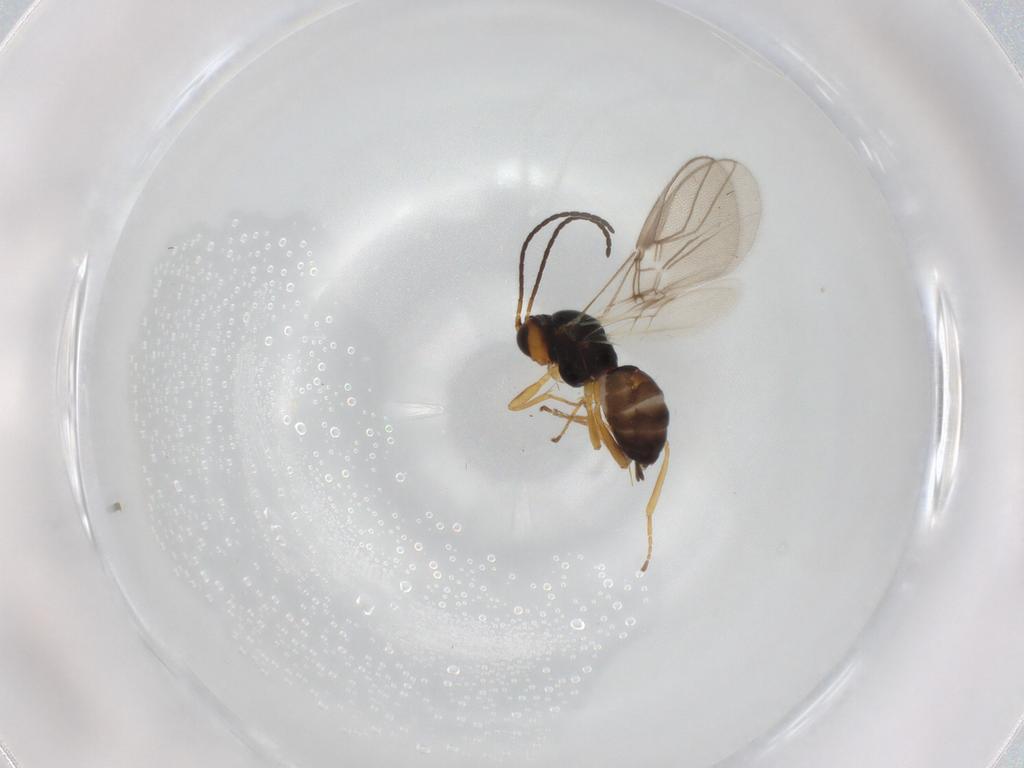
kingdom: Animalia
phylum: Arthropoda
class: Insecta
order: Hymenoptera
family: Braconidae
